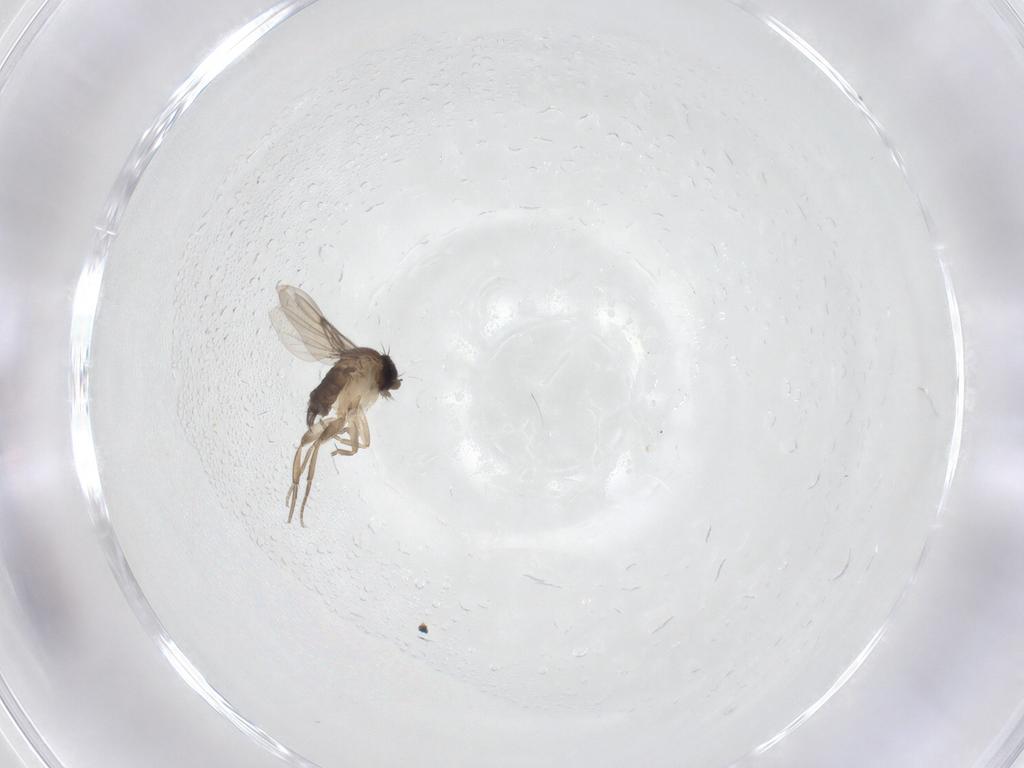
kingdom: Animalia
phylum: Arthropoda
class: Insecta
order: Diptera
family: Phoridae
